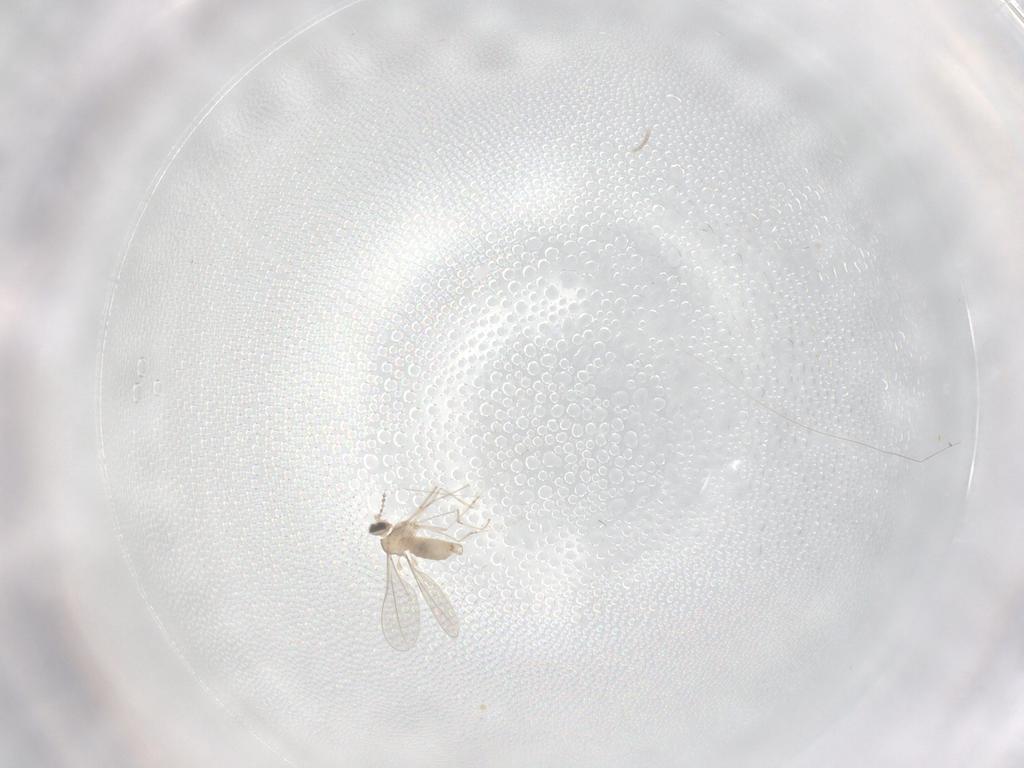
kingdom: Animalia
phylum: Arthropoda
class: Insecta
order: Diptera
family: Cecidomyiidae
